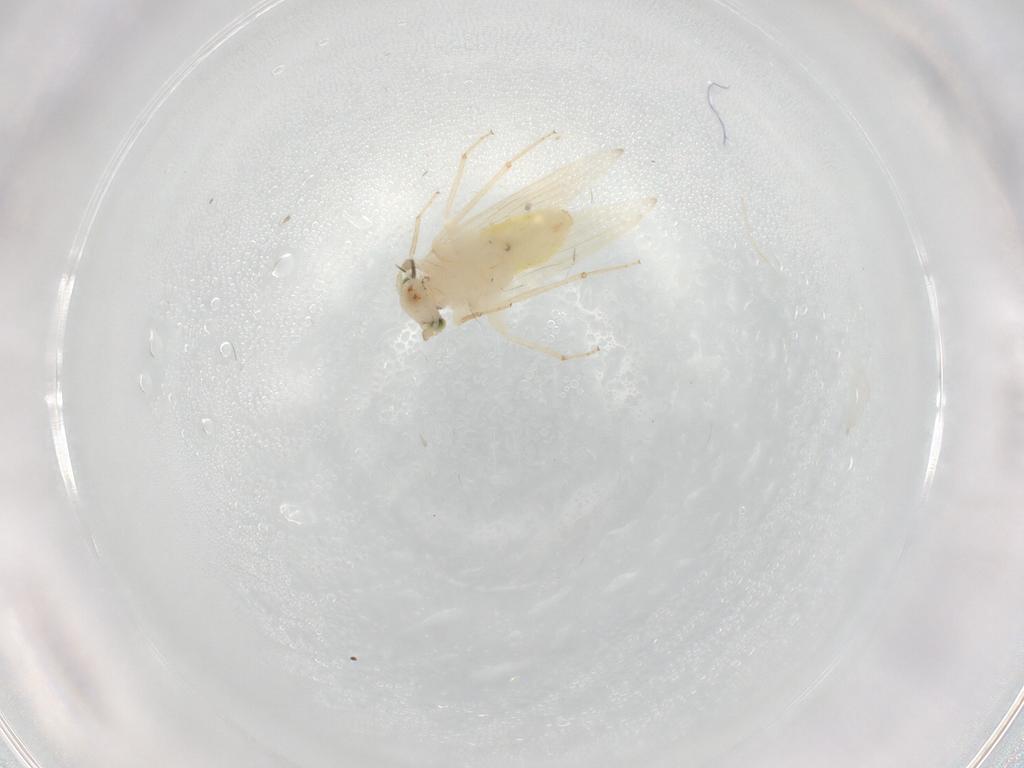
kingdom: Animalia
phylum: Arthropoda
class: Insecta
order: Psocodea
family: Lepidopsocidae
